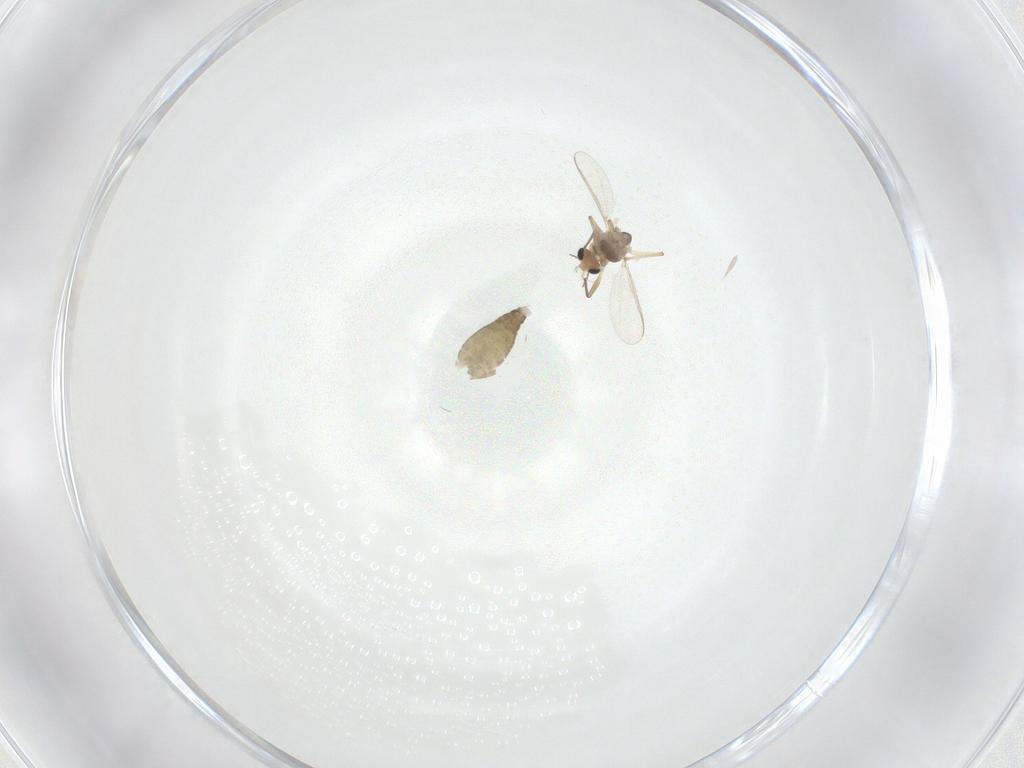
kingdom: Animalia
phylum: Arthropoda
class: Insecta
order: Diptera
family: Chironomidae
